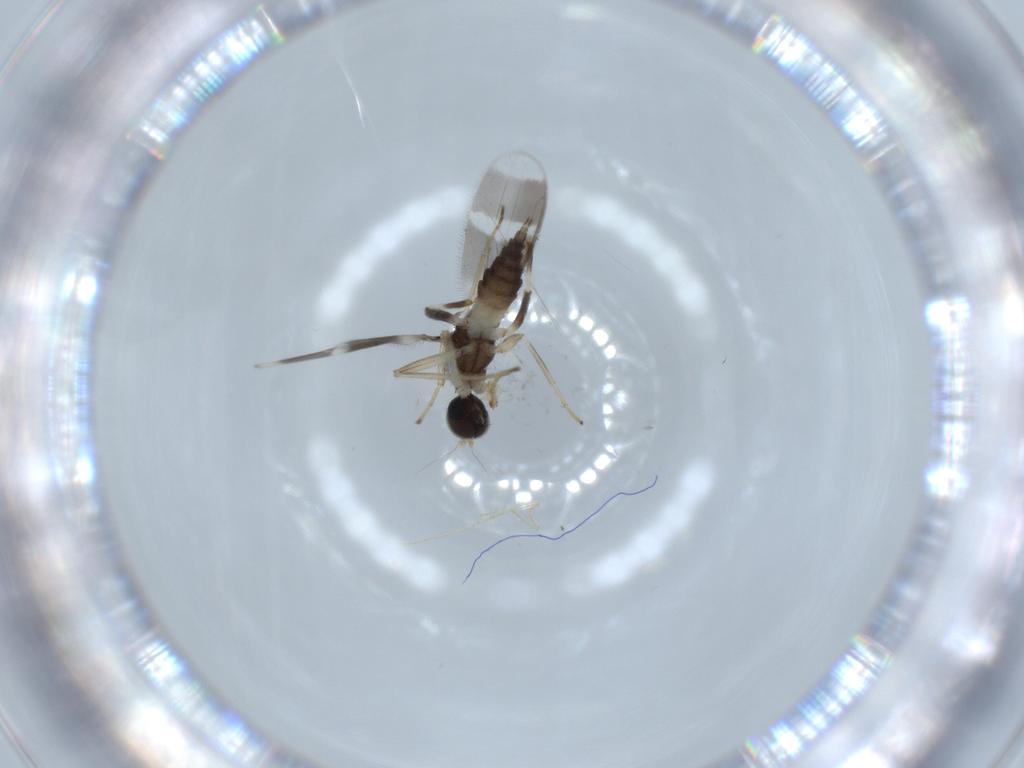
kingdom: Animalia
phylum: Arthropoda
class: Insecta
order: Diptera
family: Hybotidae
